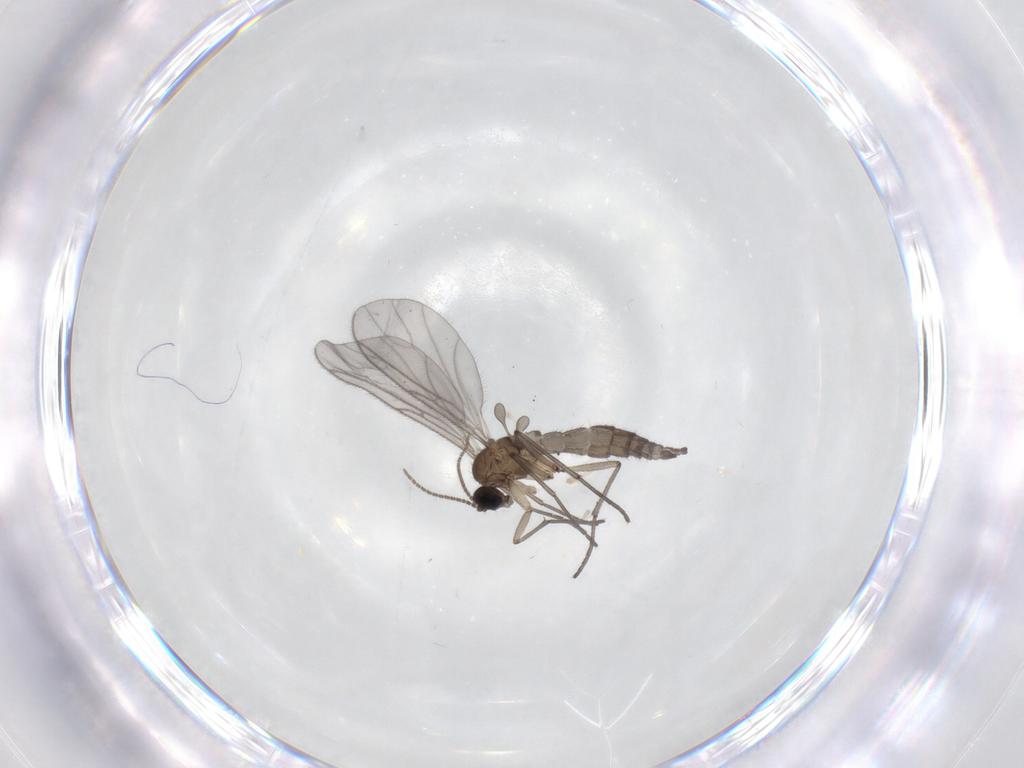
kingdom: Animalia
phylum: Arthropoda
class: Insecta
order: Diptera
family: Sciaridae
